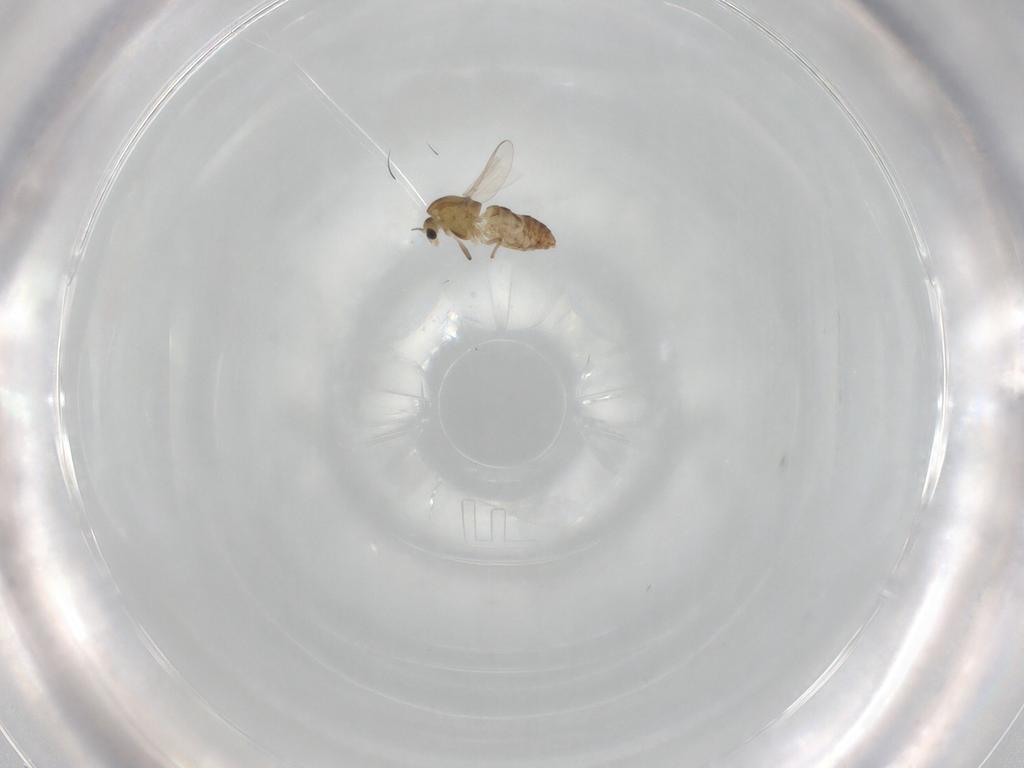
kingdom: Animalia
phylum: Arthropoda
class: Insecta
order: Diptera
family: Chironomidae
